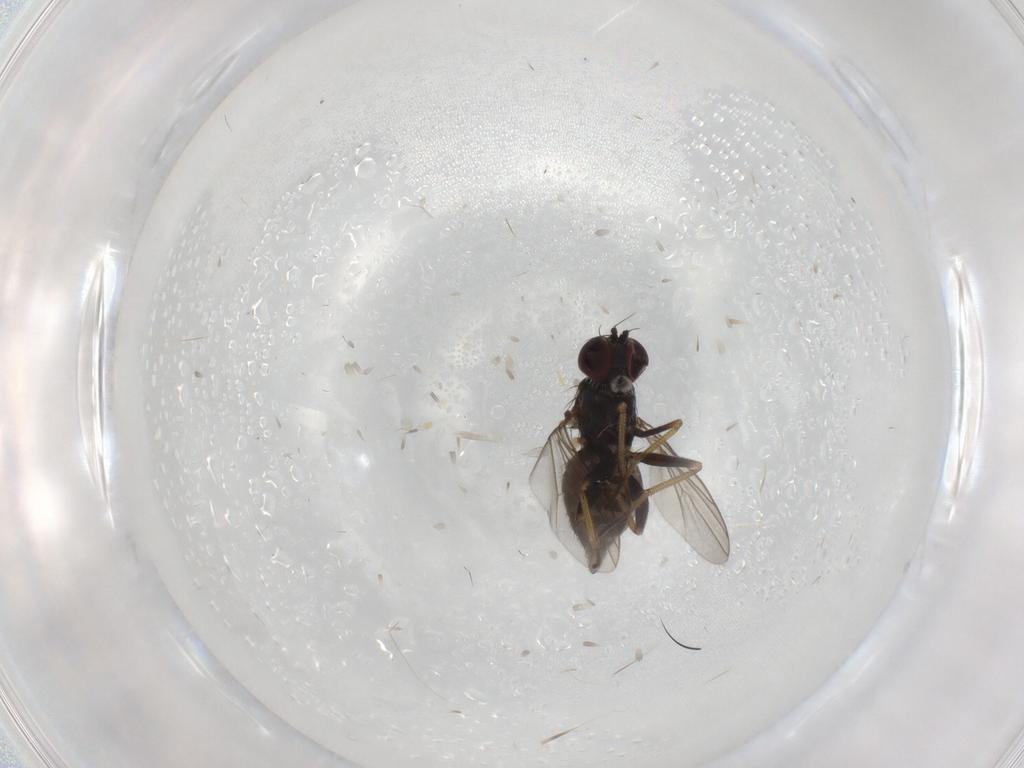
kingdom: Animalia
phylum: Arthropoda
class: Insecta
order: Diptera
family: Dolichopodidae
